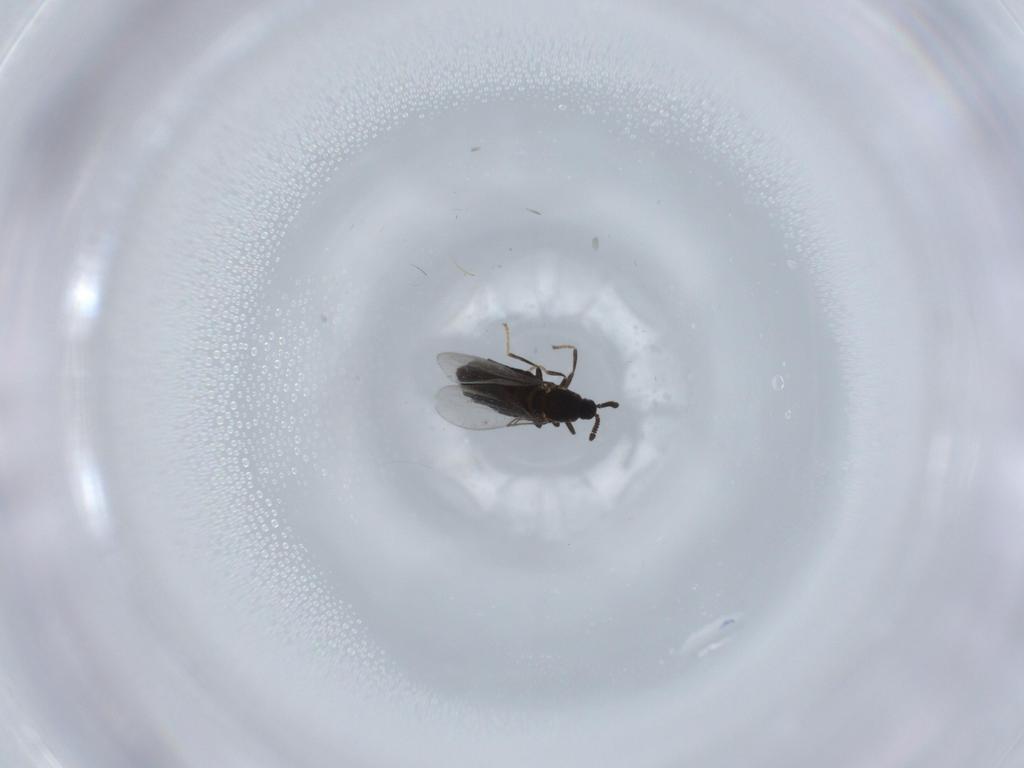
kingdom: Animalia
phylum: Arthropoda
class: Insecta
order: Diptera
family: Scatopsidae
